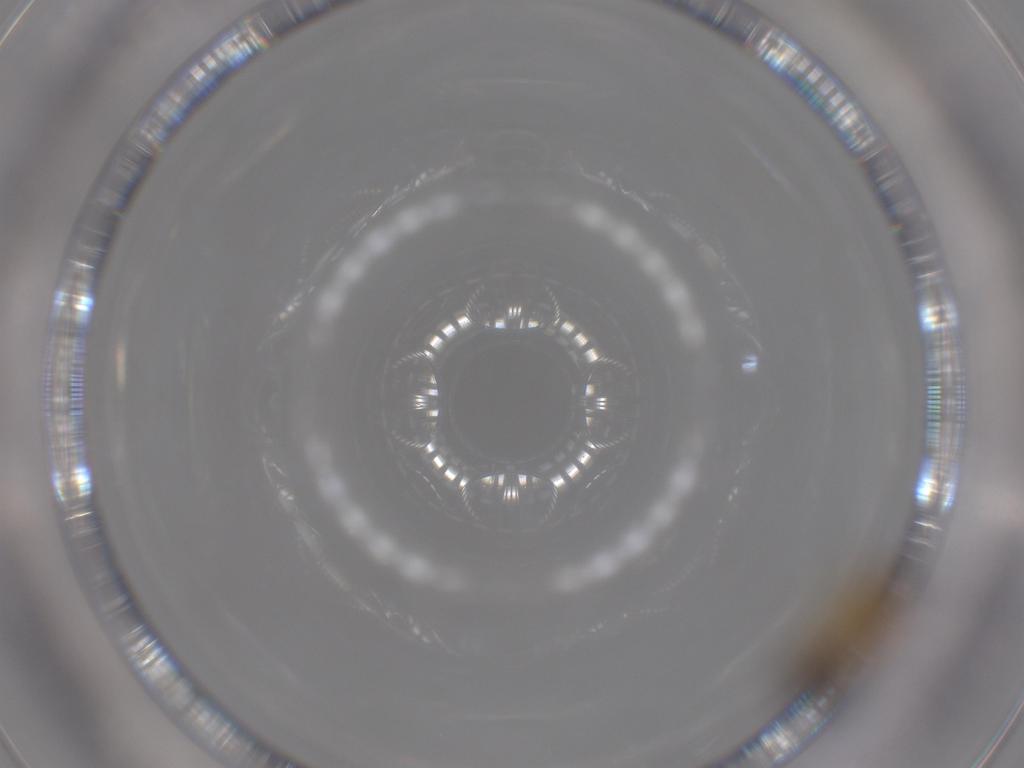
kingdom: Animalia
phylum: Arthropoda
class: Insecta
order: Hymenoptera
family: Eulophidae
